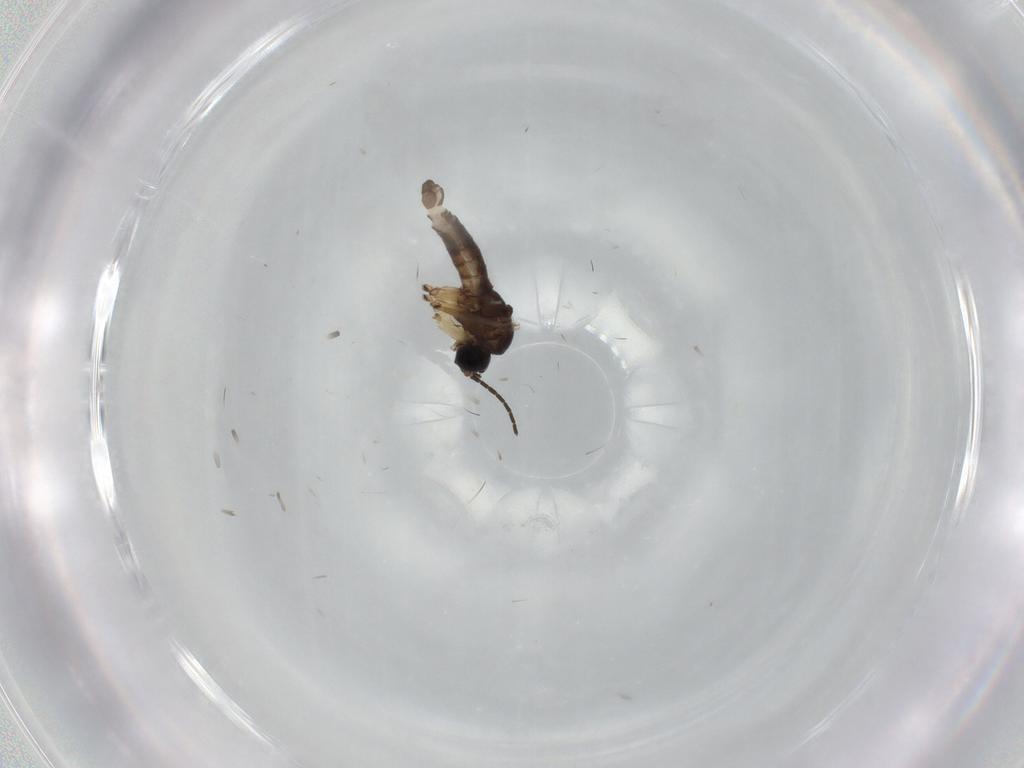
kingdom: Animalia
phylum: Arthropoda
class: Insecta
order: Diptera
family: Sciaridae
